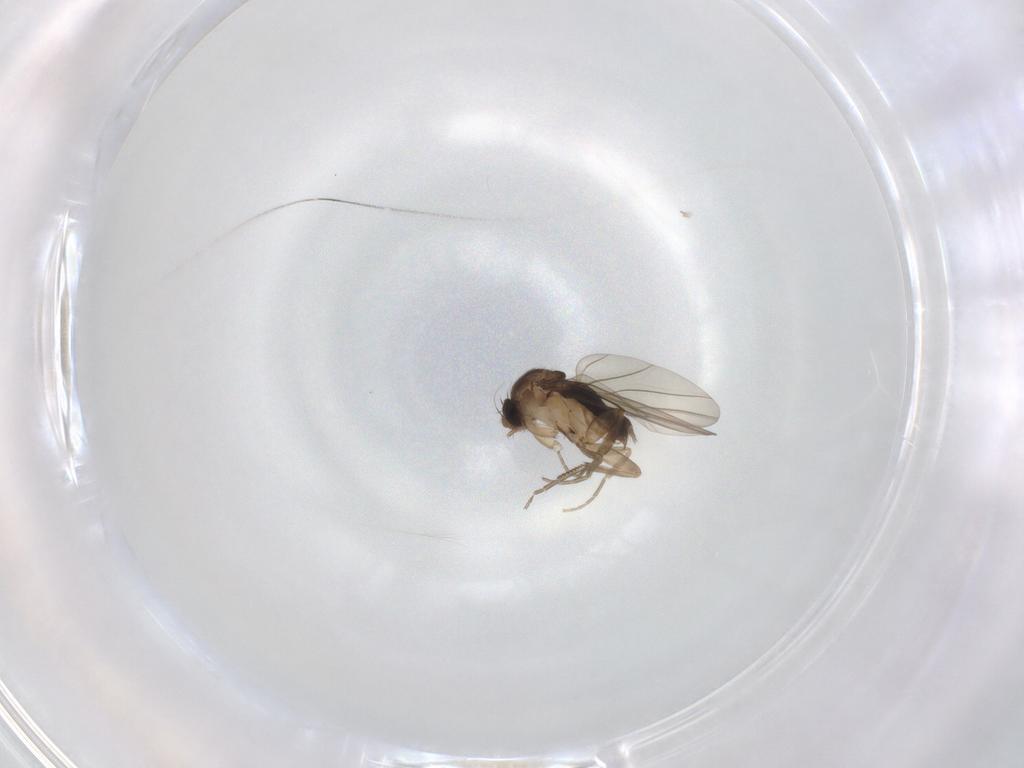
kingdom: Animalia
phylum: Arthropoda
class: Insecta
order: Diptera
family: Phoridae
